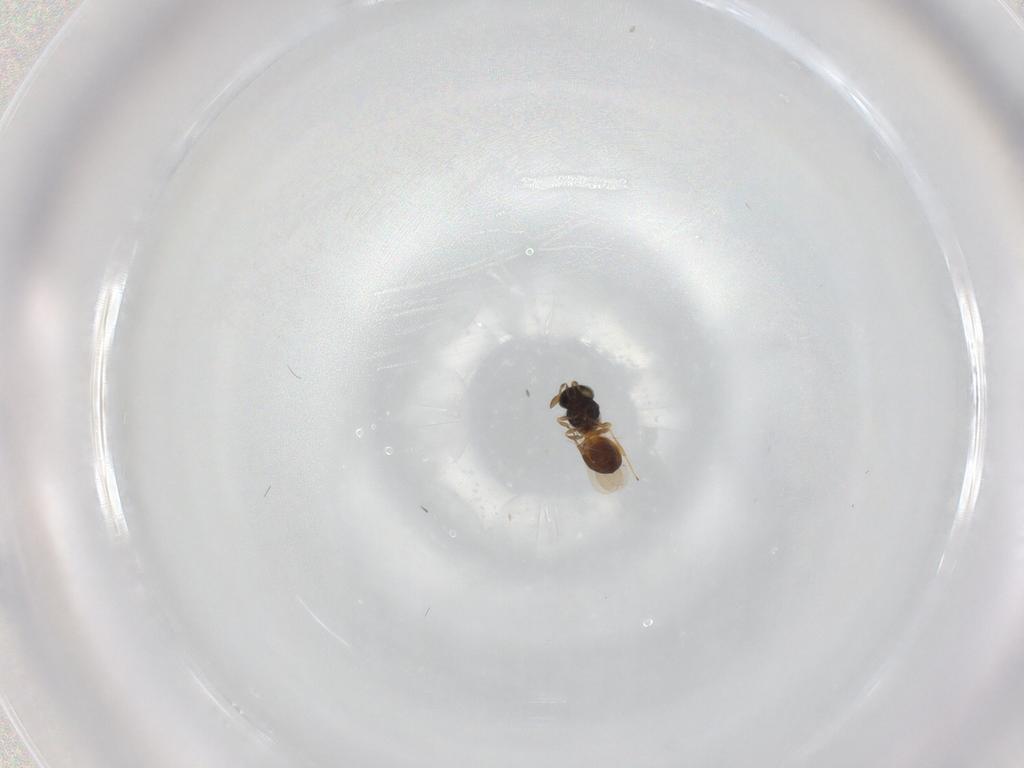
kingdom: Animalia
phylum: Arthropoda
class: Insecta
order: Hymenoptera
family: Scelionidae
